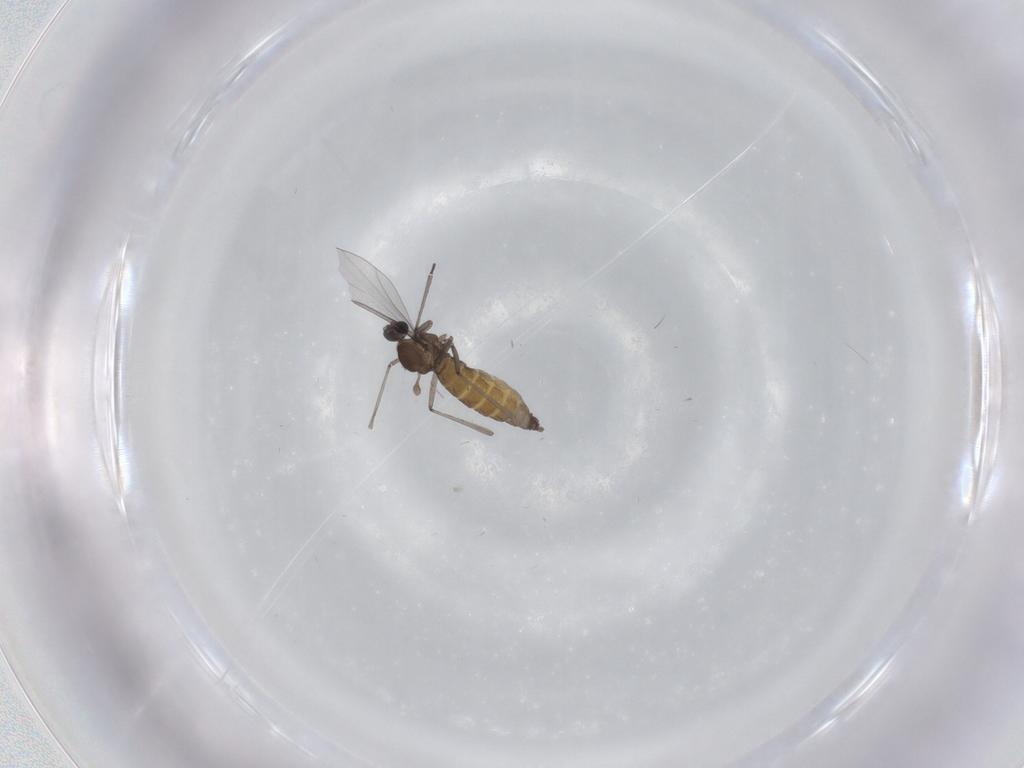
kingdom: Animalia
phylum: Arthropoda
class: Insecta
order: Diptera
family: Cecidomyiidae
